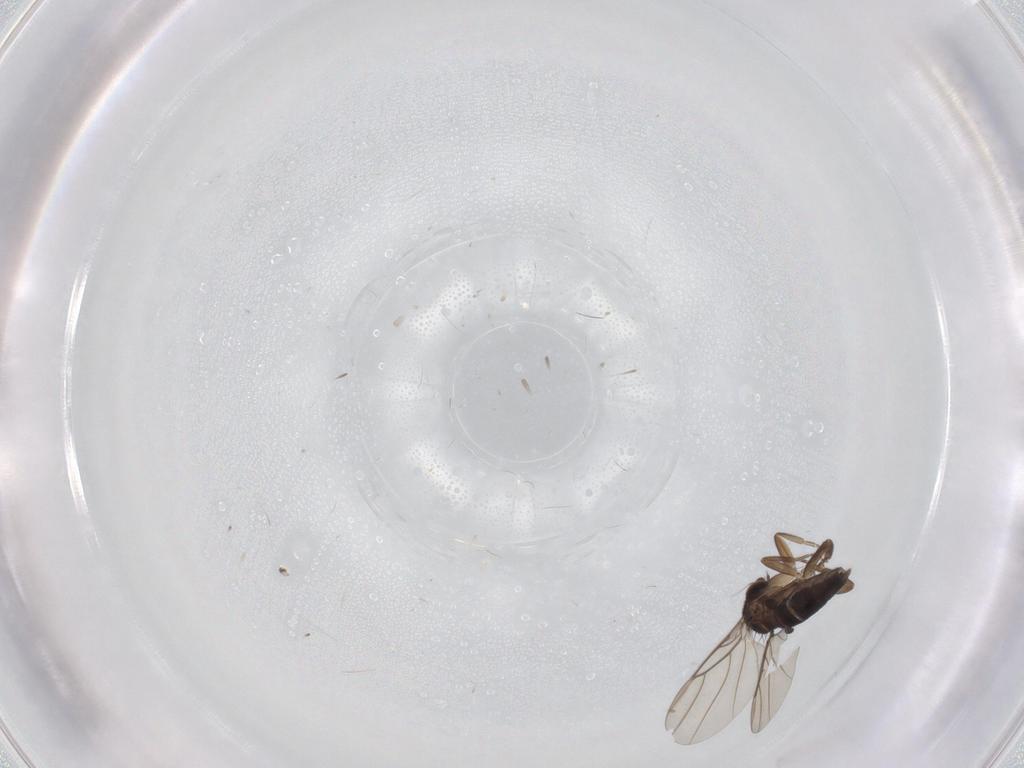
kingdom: Animalia
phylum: Arthropoda
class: Insecta
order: Diptera
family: Phoridae
